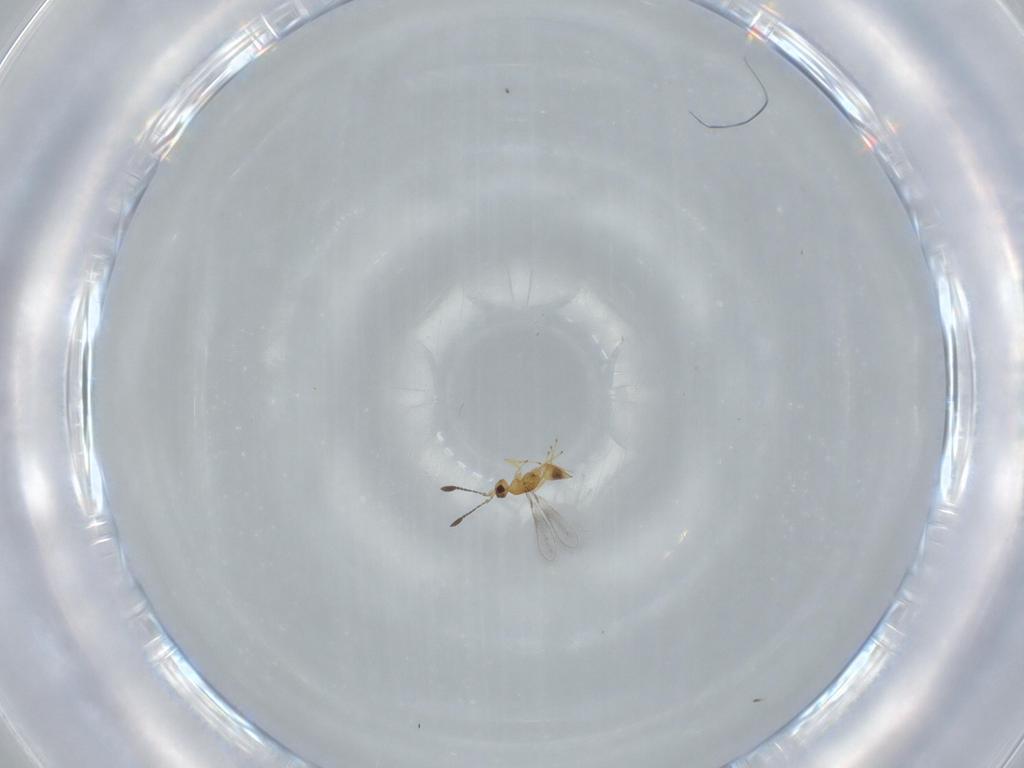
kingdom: Animalia
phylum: Arthropoda
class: Insecta
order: Hymenoptera
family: Mymaridae
